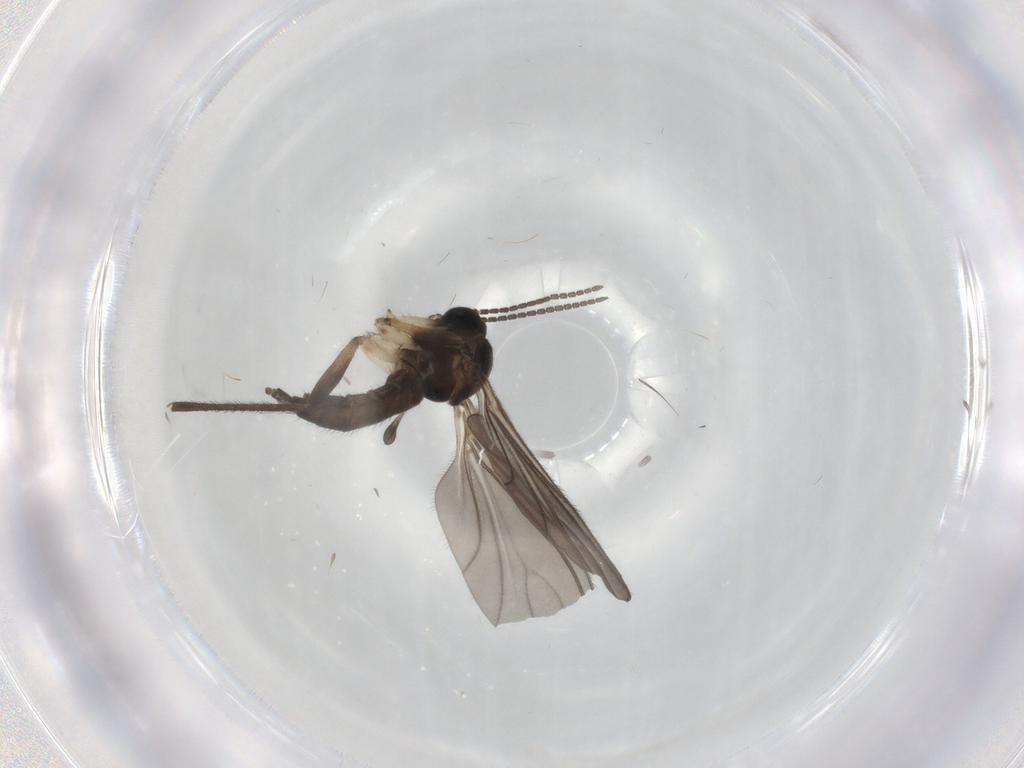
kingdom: Animalia
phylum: Arthropoda
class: Insecta
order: Diptera
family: Sciaridae
